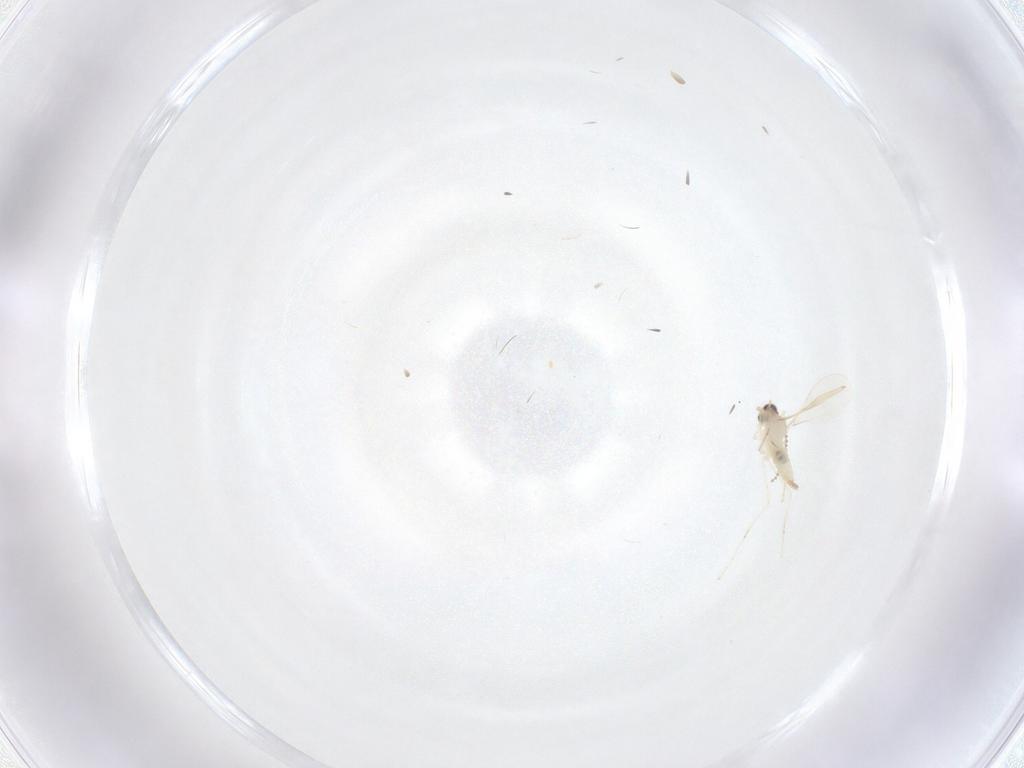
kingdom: Animalia
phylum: Arthropoda
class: Insecta
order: Diptera
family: Cecidomyiidae
